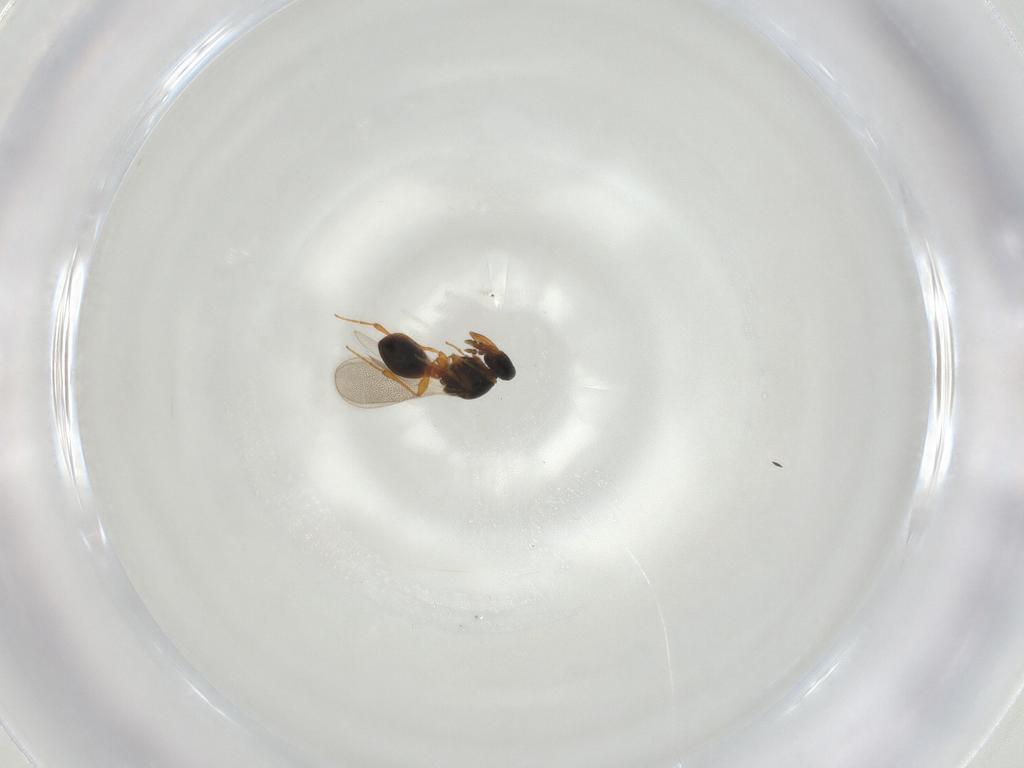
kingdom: Animalia
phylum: Arthropoda
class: Insecta
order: Hymenoptera
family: Platygastridae
